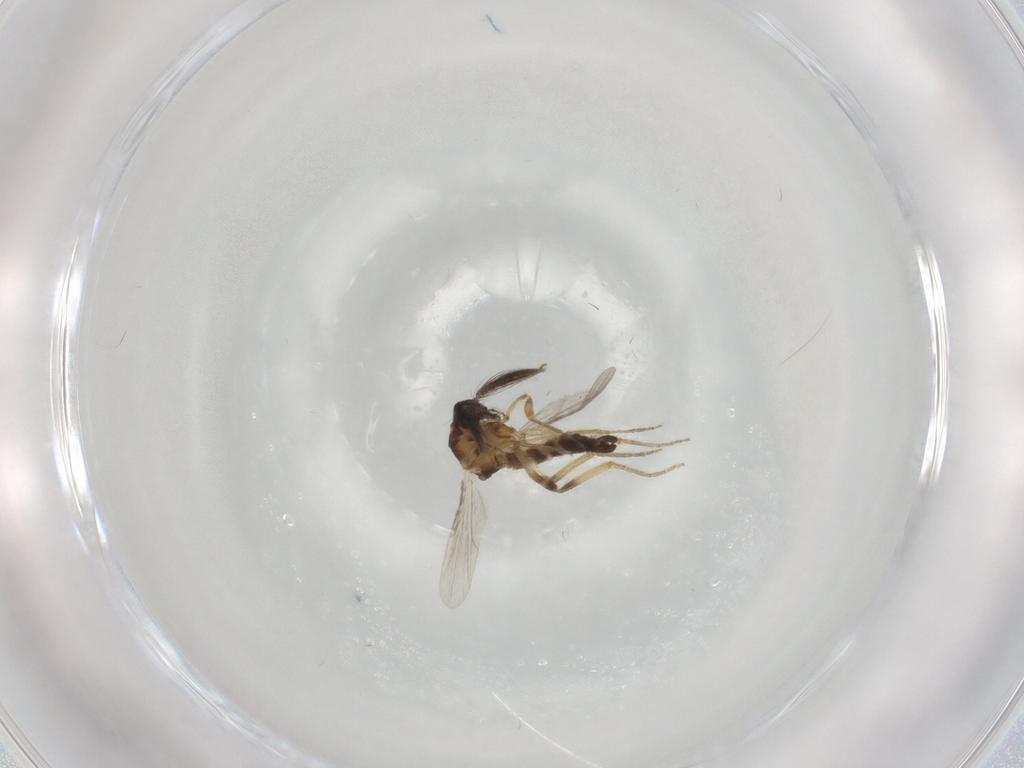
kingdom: Animalia
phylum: Arthropoda
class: Insecta
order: Diptera
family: Ceratopogonidae
